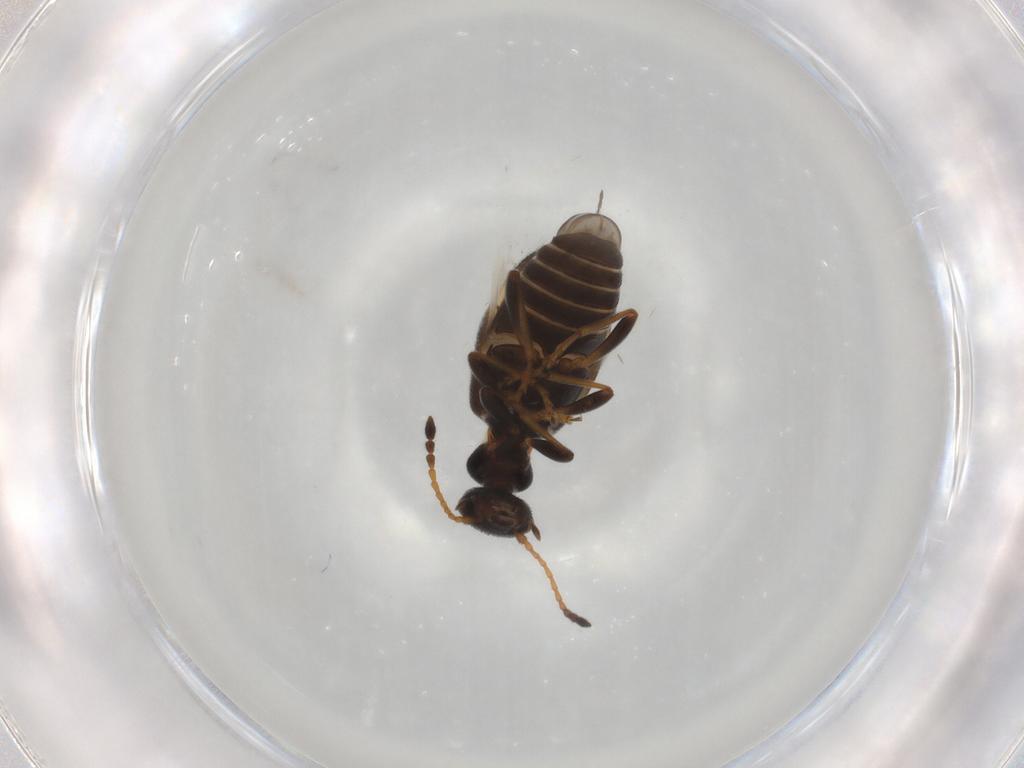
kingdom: Animalia
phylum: Arthropoda
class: Insecta
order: Coleoptera
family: Anthicidae
